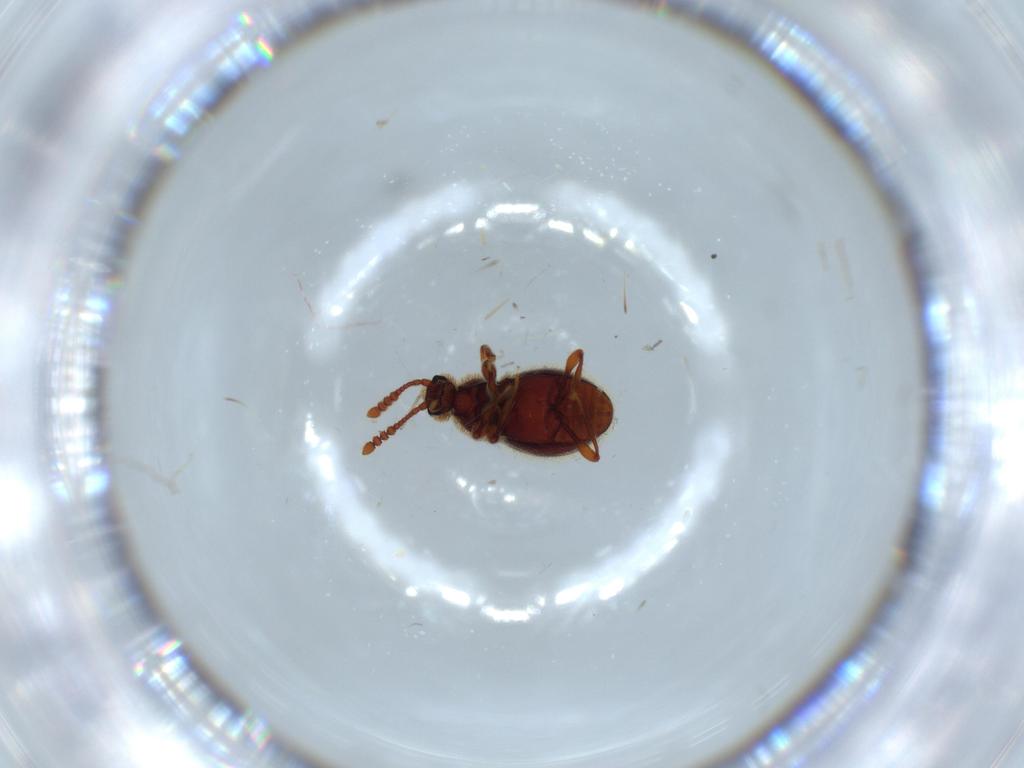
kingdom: Animalia
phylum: Arthropoda
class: Insecta
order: Coleoptera
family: Staphylinidae
